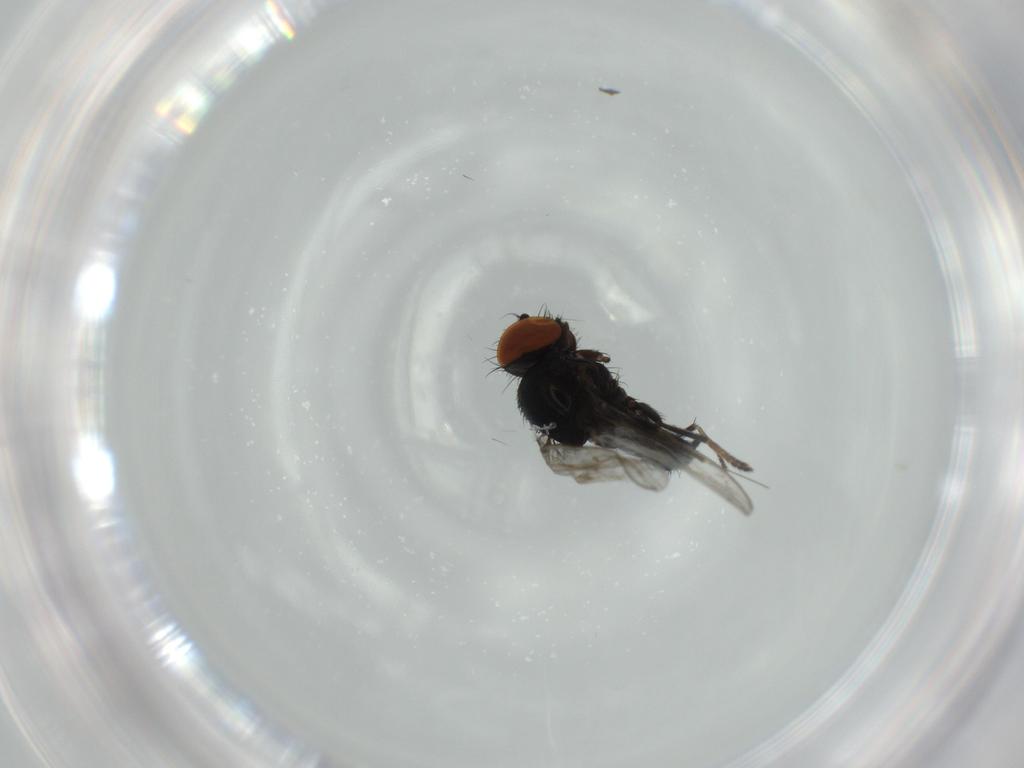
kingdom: Animalia
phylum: Arthropoda
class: Insecta
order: Diptera
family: Milichiidae
